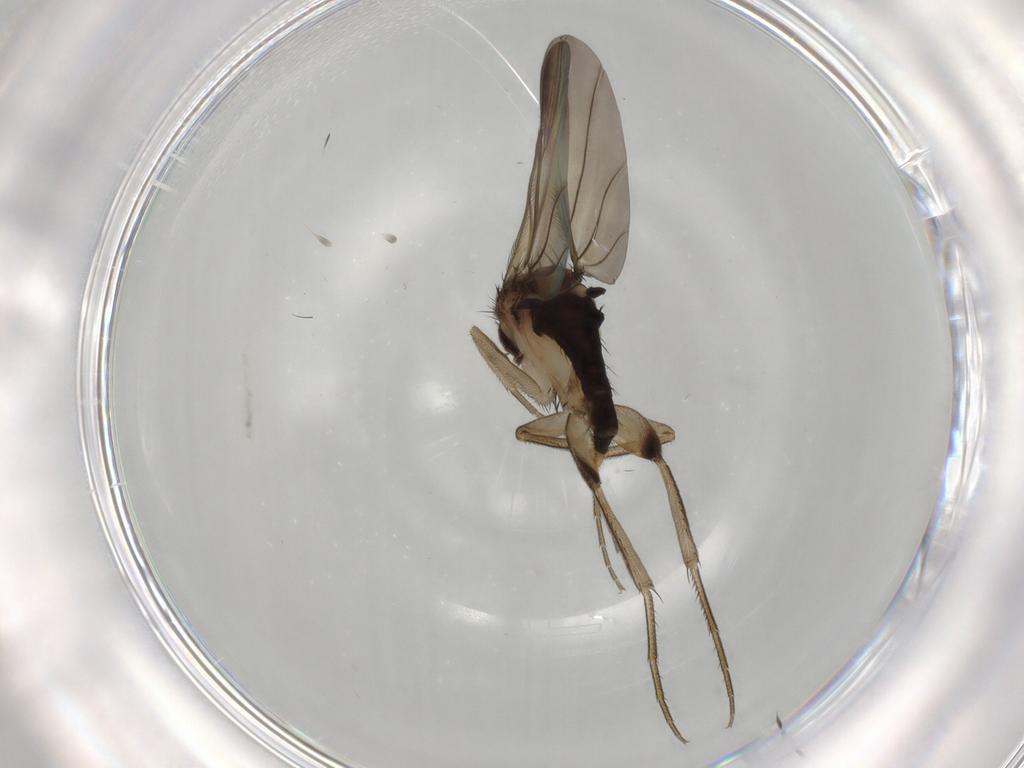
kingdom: Animalia
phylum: Arthropoda
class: Insecta
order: Diptera
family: Phoridae
